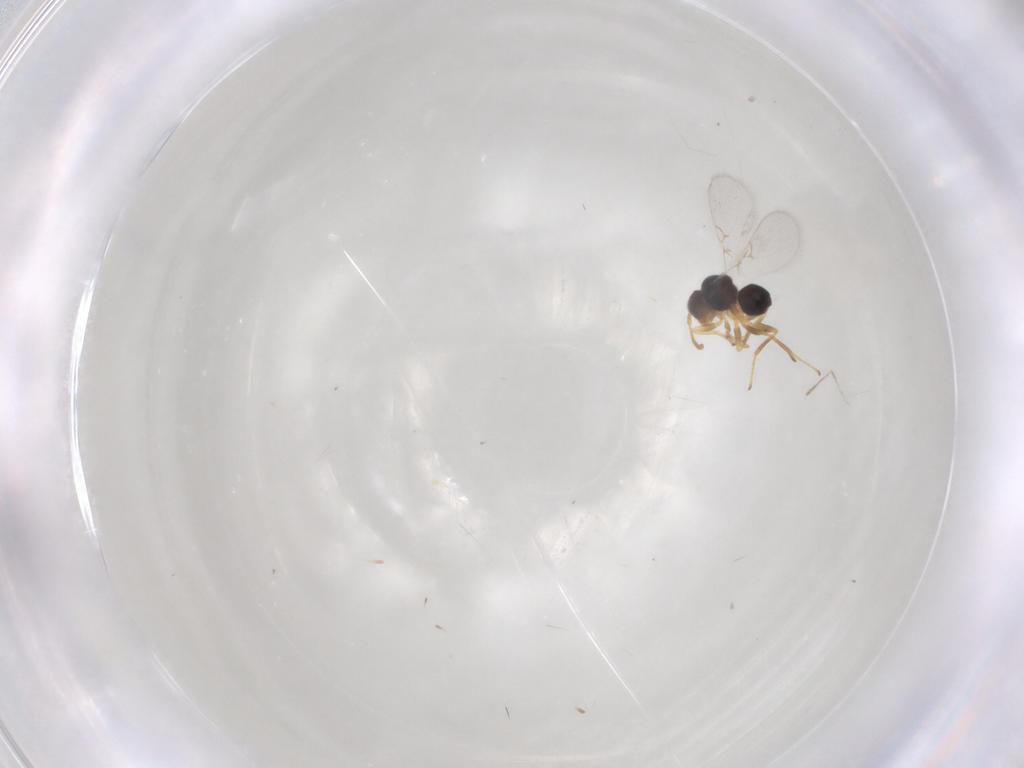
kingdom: Animalia
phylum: Arthropoda
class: Insecta
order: Hymenoptera
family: Figitidae
